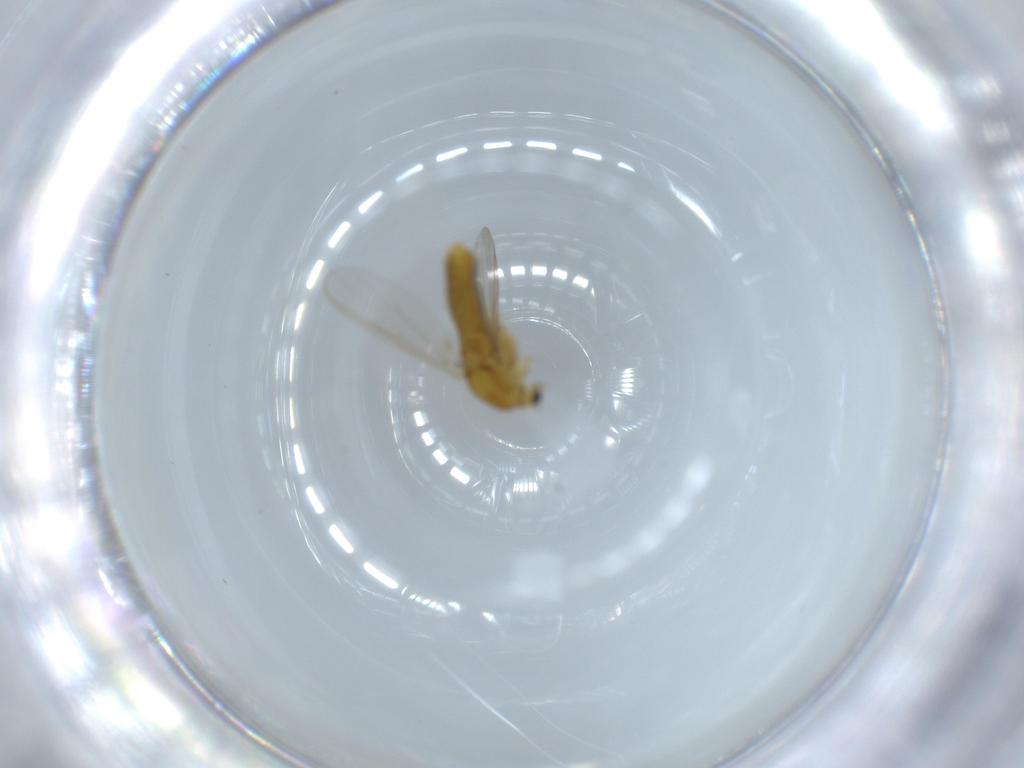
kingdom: Animalia
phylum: Arthropoda
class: Insecta
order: Diptera
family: Chironomidae
